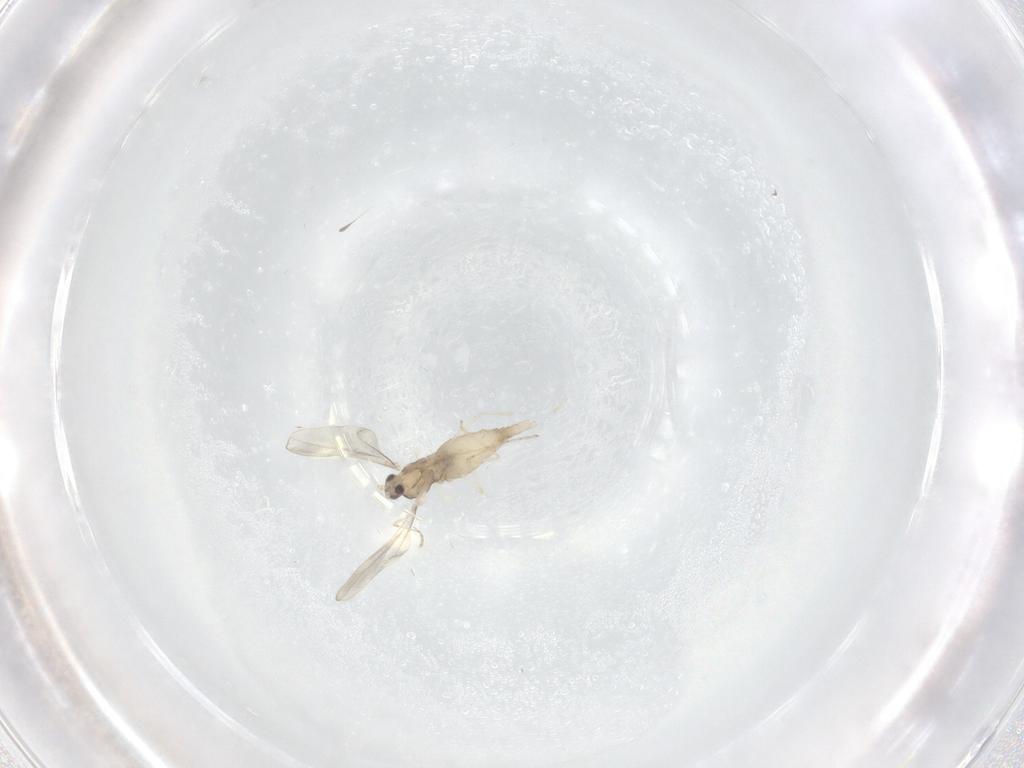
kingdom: Animalia
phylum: Arthropoda
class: Insecta
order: Diptera
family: Cecidomyiidae
